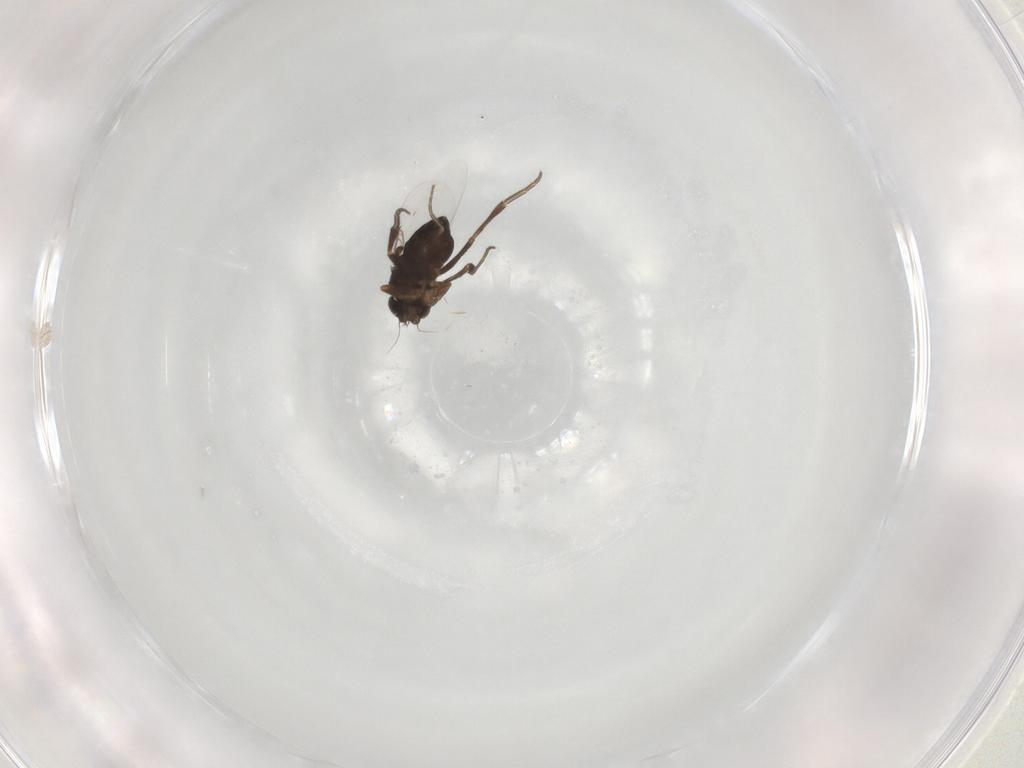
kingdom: Animalia
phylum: Arthropoda
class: Insecta
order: Diptera
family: Phoridae
